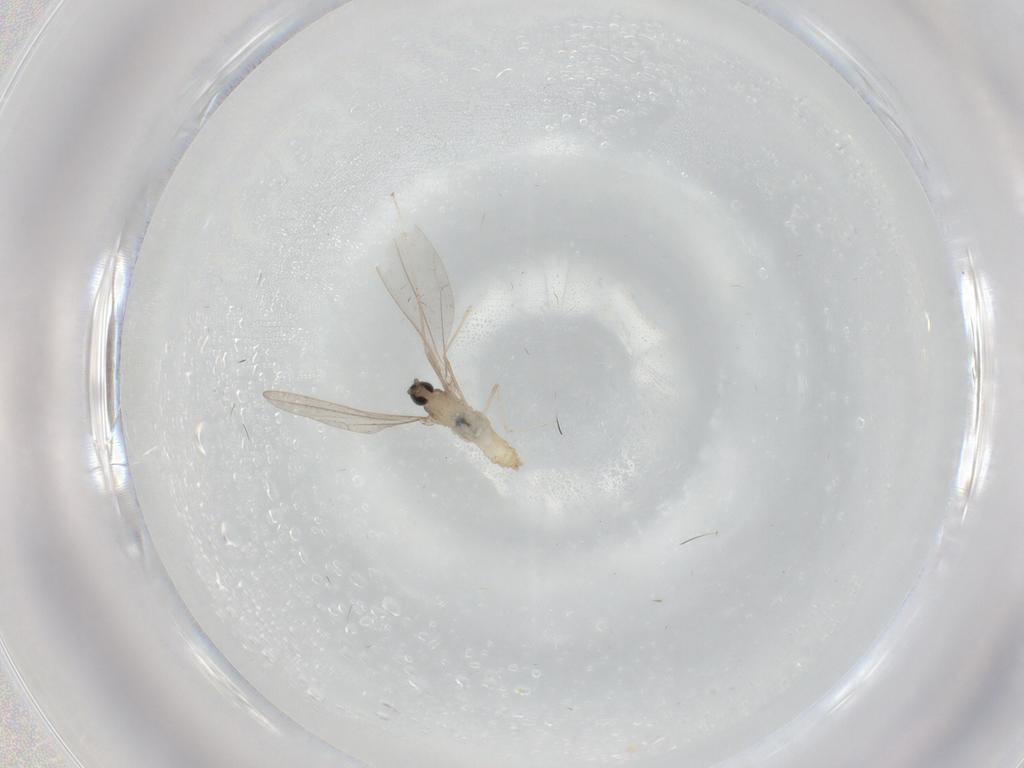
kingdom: Animalia
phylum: Arthropoda
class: Insecta
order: Diptera
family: Cecidomyiidae
